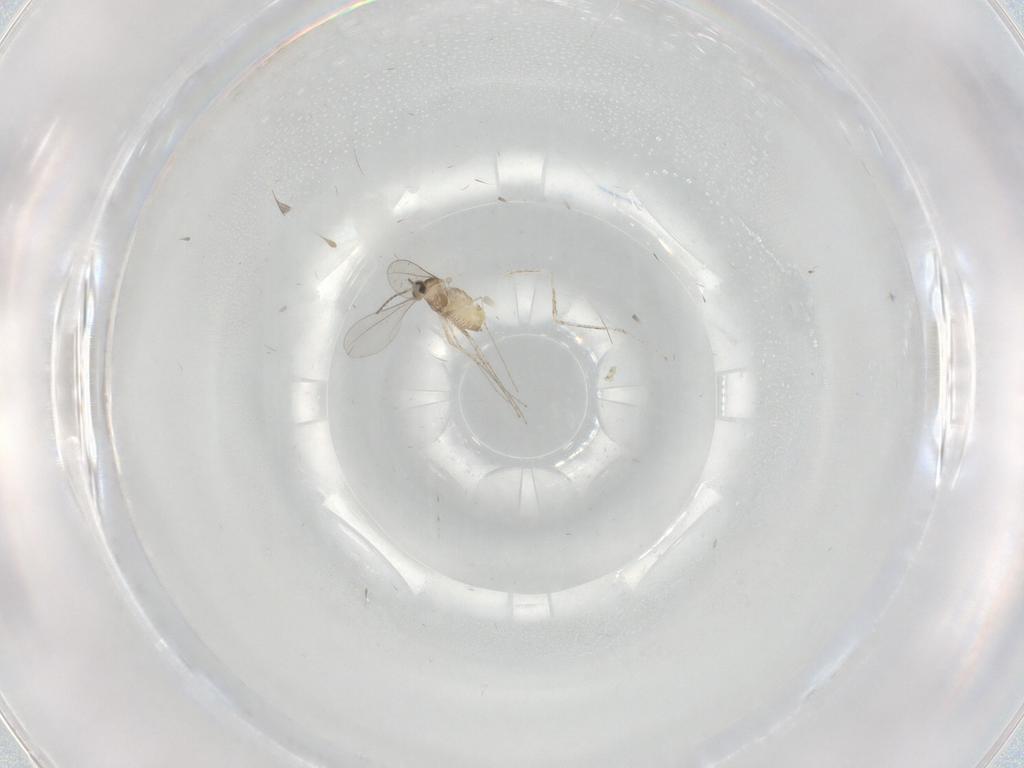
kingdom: Animalia
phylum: Arthropoda
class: Insecta
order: Diptera
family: Cecidomyiidae
